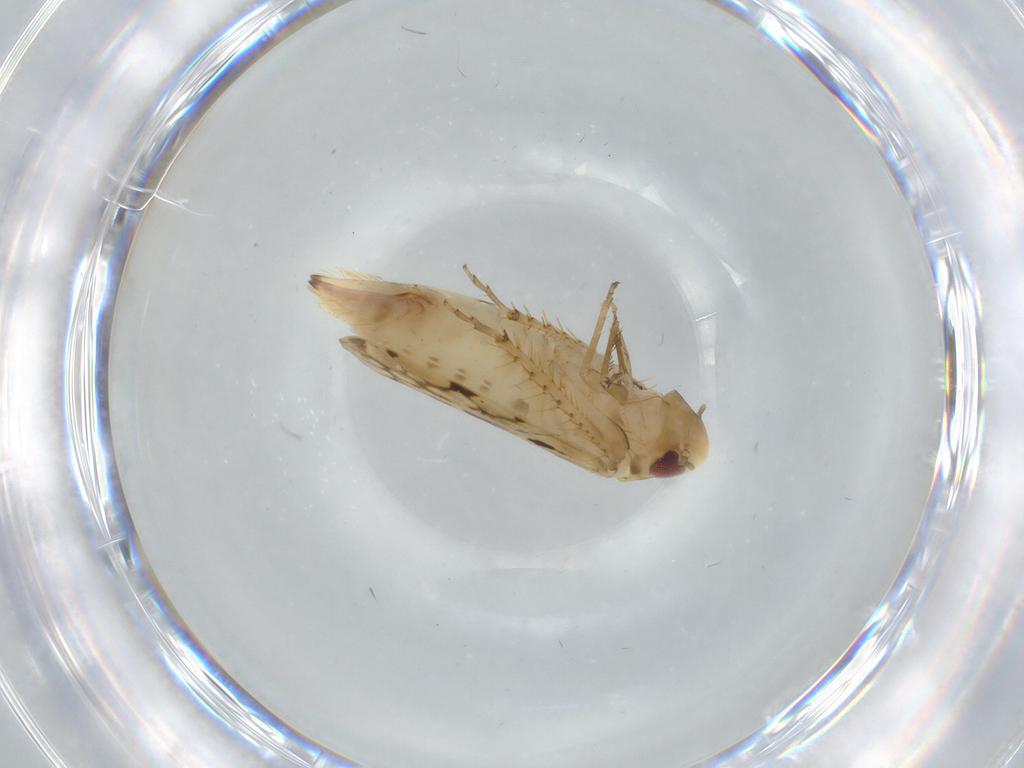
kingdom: Animalia
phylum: Arthropoda
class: Insecta
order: Hemiptera
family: Cicadellidae
